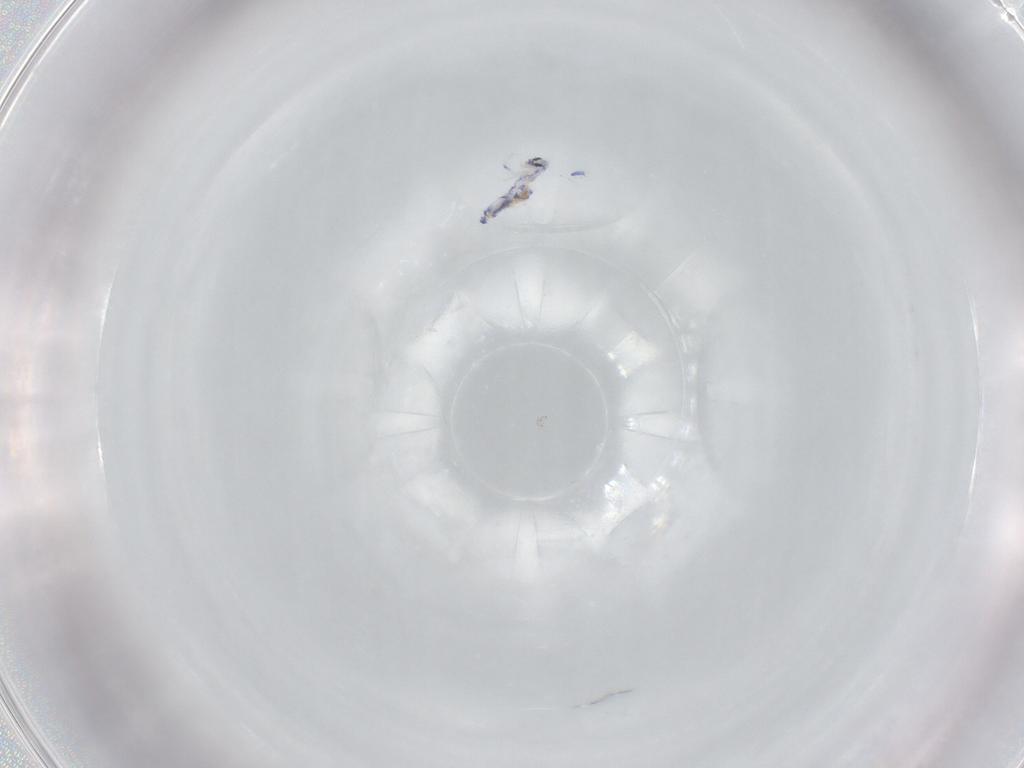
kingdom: Animalia
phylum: Arthropoda
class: Collembola
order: Entomobryomorpha
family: Entomobryidae
